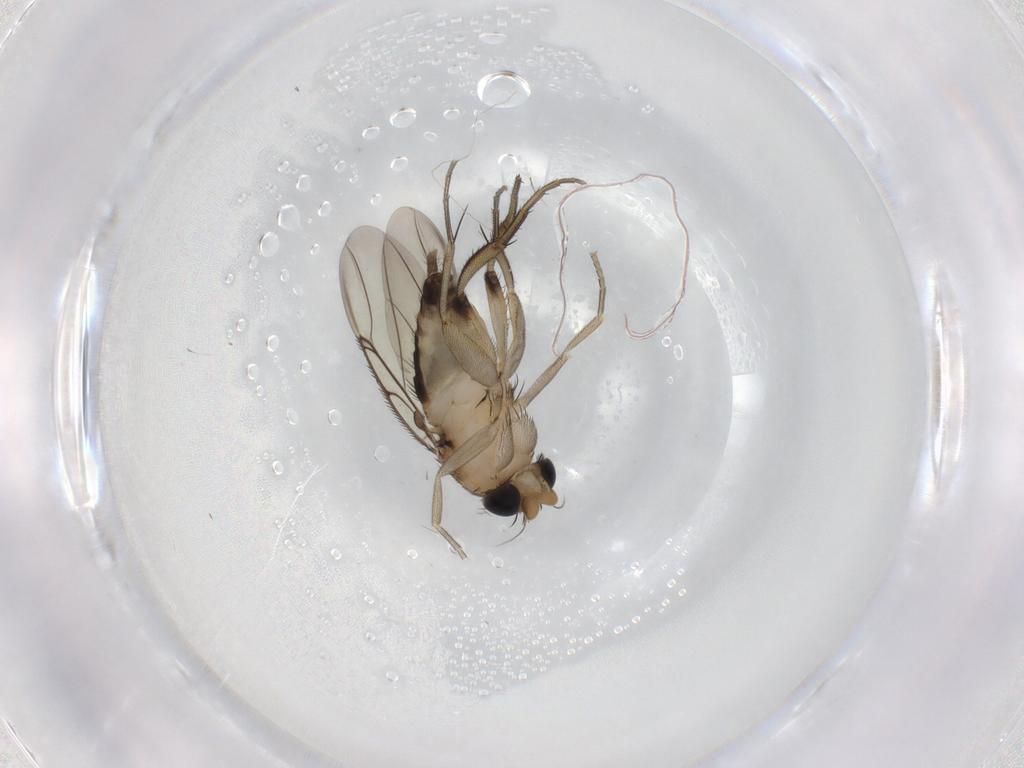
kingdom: Animalia
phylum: Arthropoda
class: Insecta
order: Diptera
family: Phoridae
